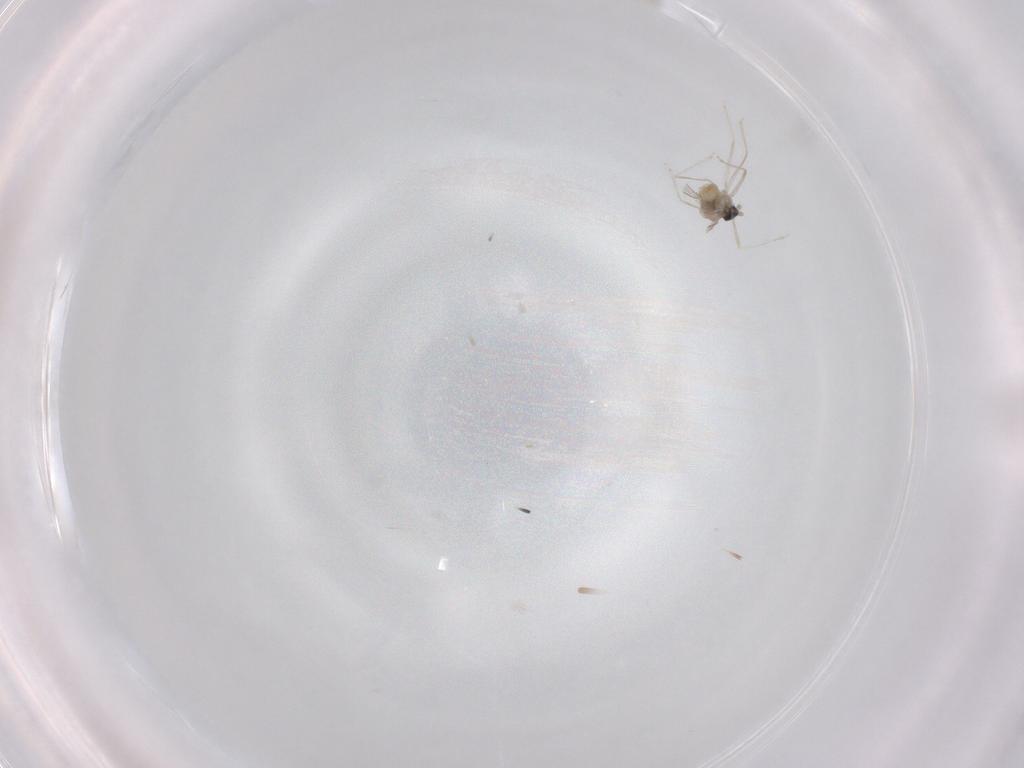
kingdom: Animalia
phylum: Arthropoda
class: Insecta
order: Diptera
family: Cecidomyiidae
